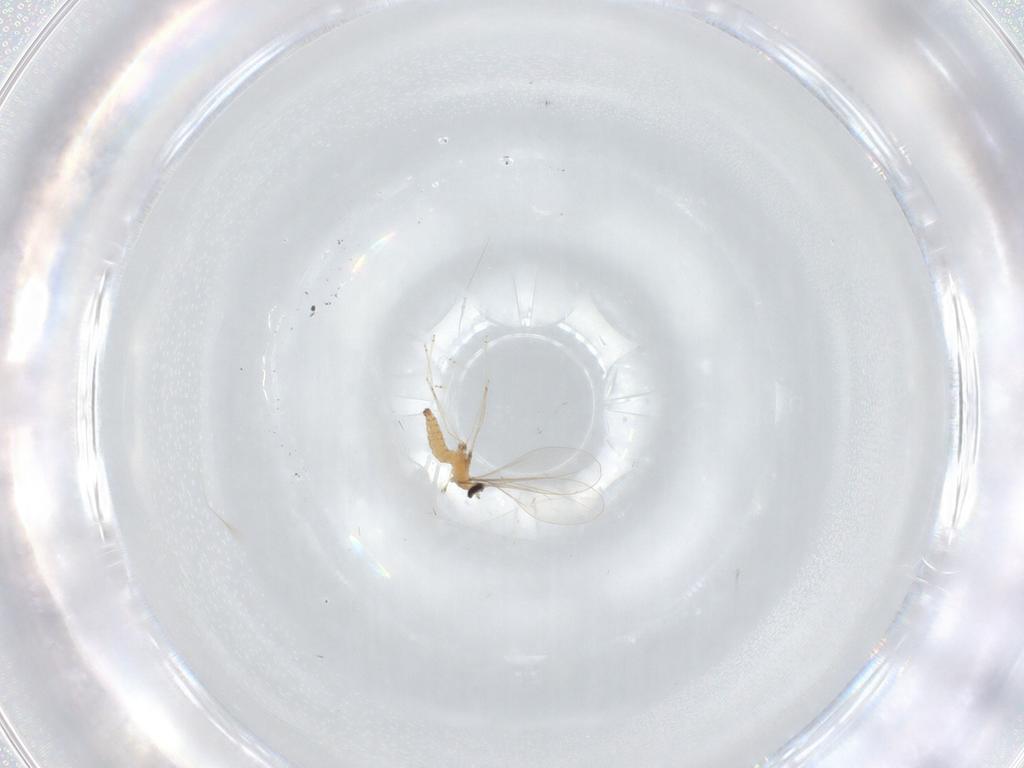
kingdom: Animalia
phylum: Arthropoda
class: Insecta
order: Diptera
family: Cecidomyiidae
